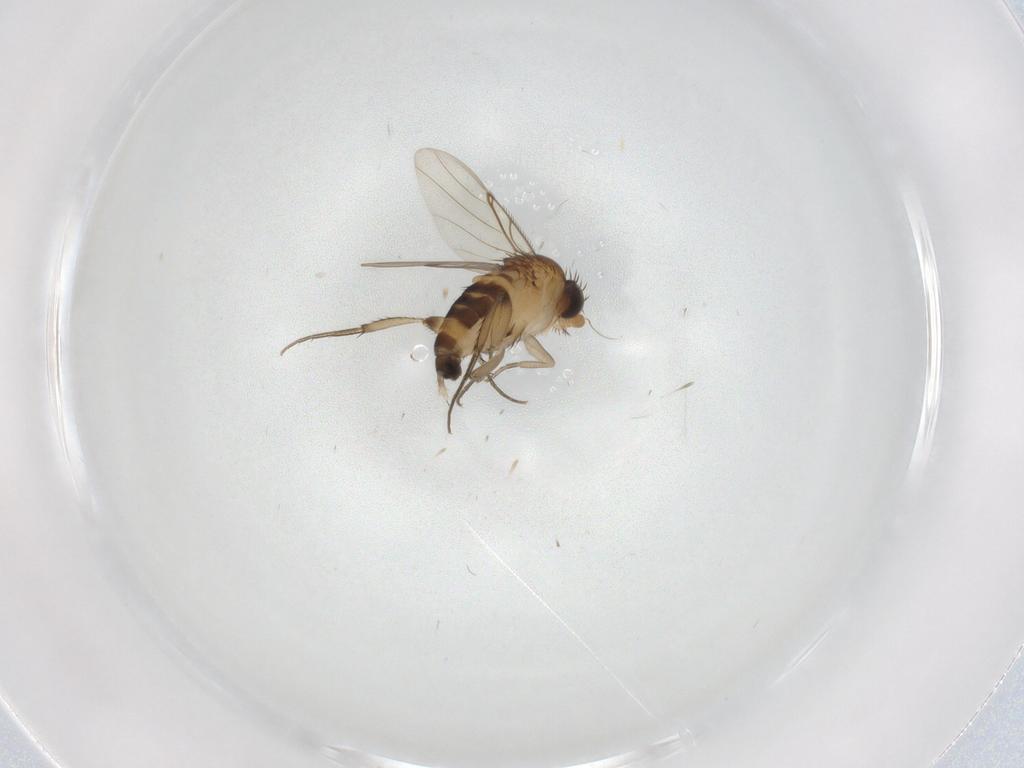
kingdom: Animalia
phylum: Arthropoda
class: Insecta
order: Diptera
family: Phoridae
